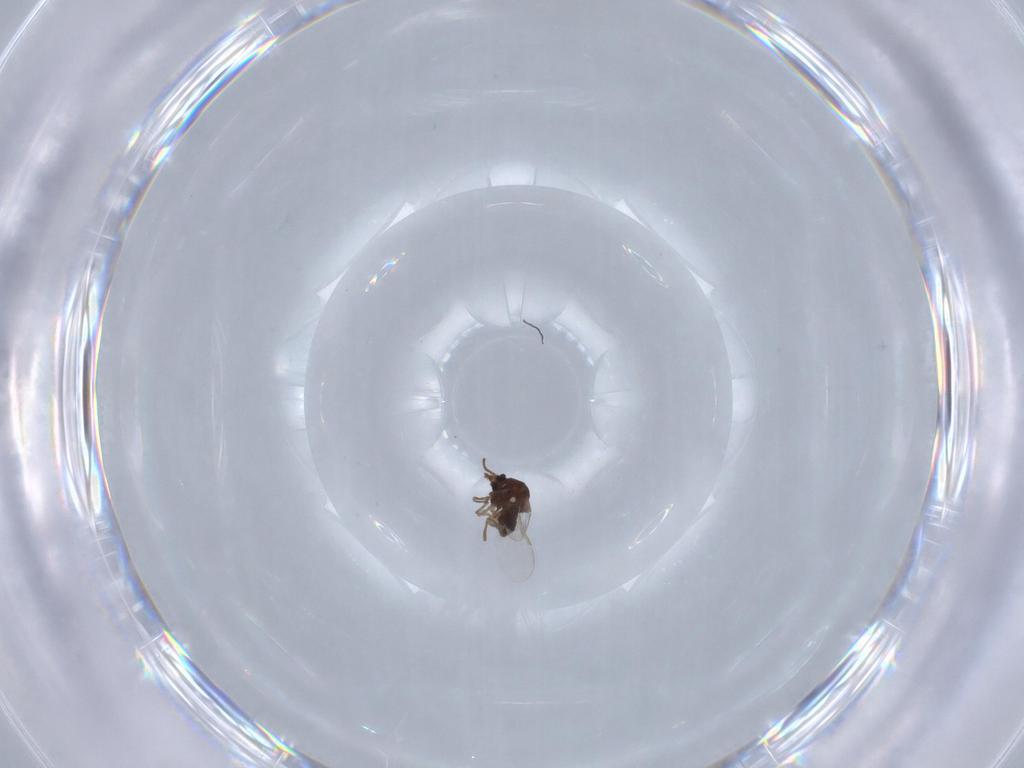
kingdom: Animalia
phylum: Arthropoda
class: Insecta
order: Diptera
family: Ceratopogonidae
